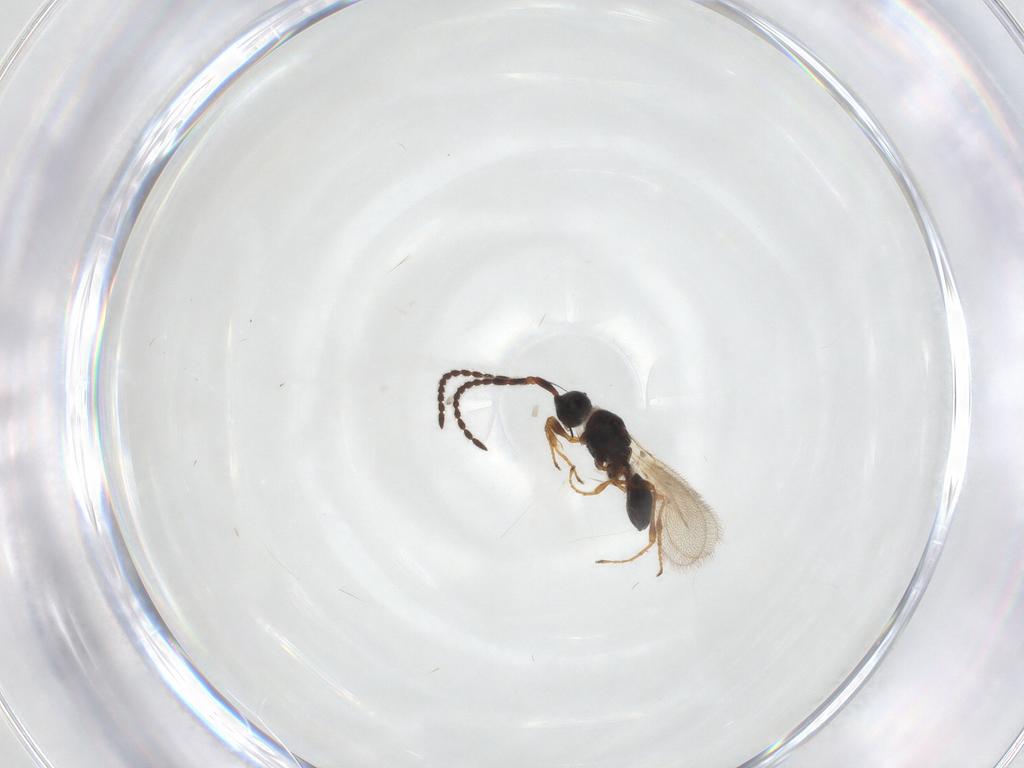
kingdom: Animalia
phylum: Arthropoda
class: Insecta
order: Hymenoptera
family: Diapriidae
